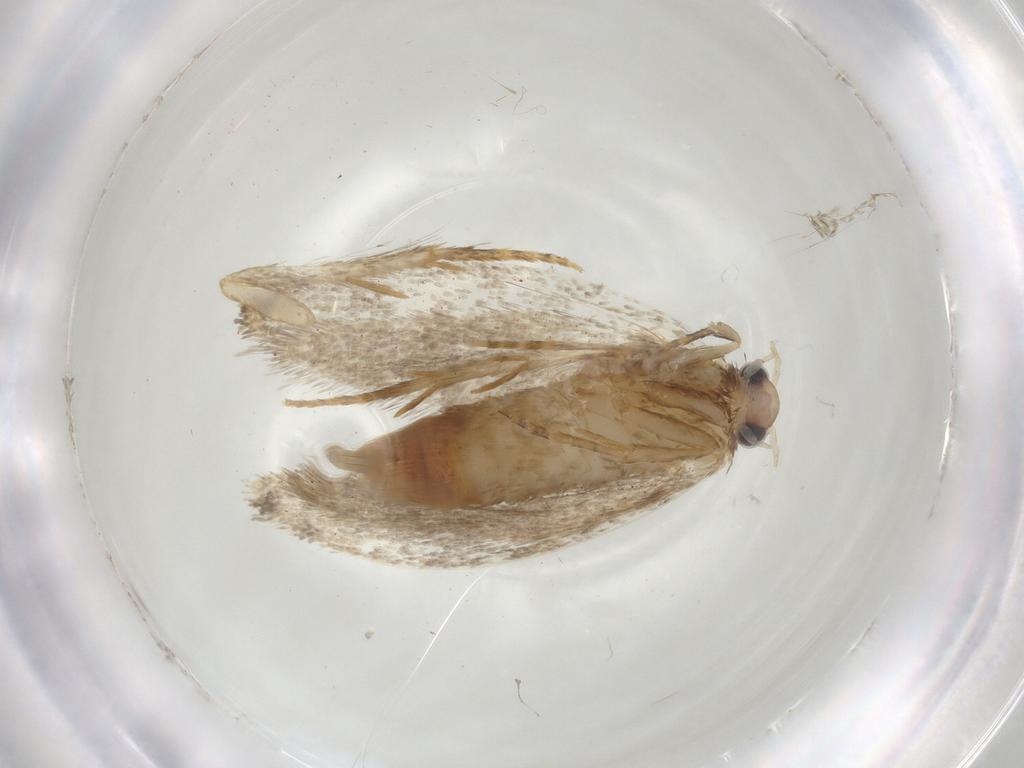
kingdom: Animalia
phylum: Arthropoda
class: Insecta
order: Lepidoptera
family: Psychidae
